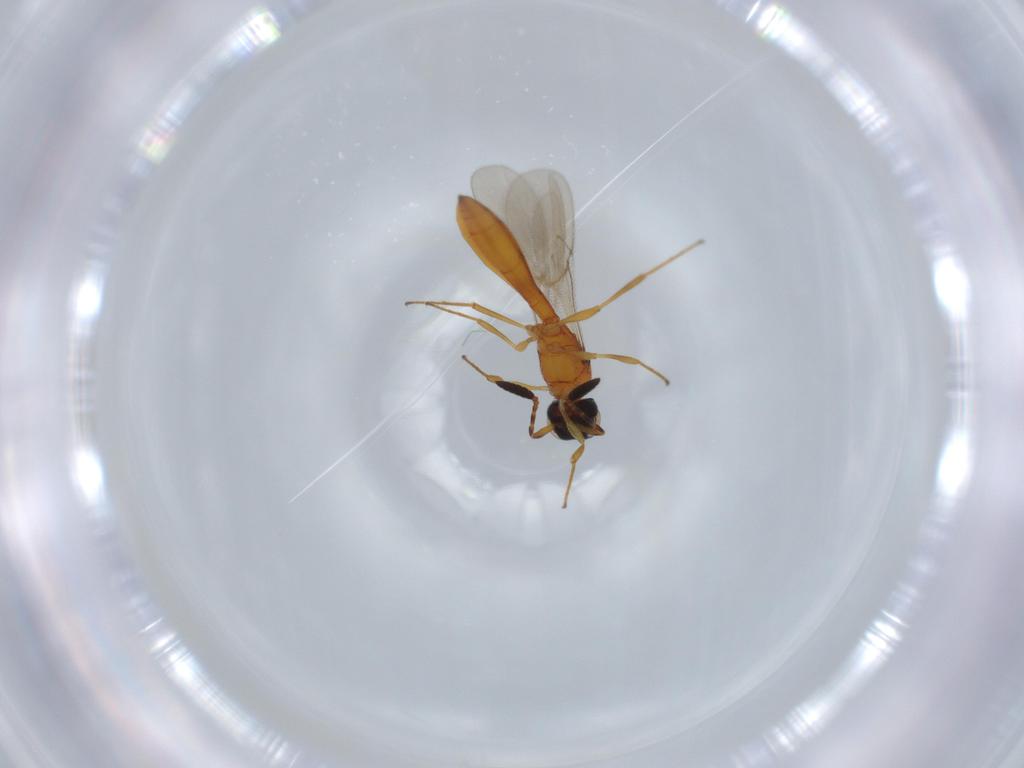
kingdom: Animalia
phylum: Arthropoda
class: Insecta
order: Hymenoptera
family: Scelionidae
